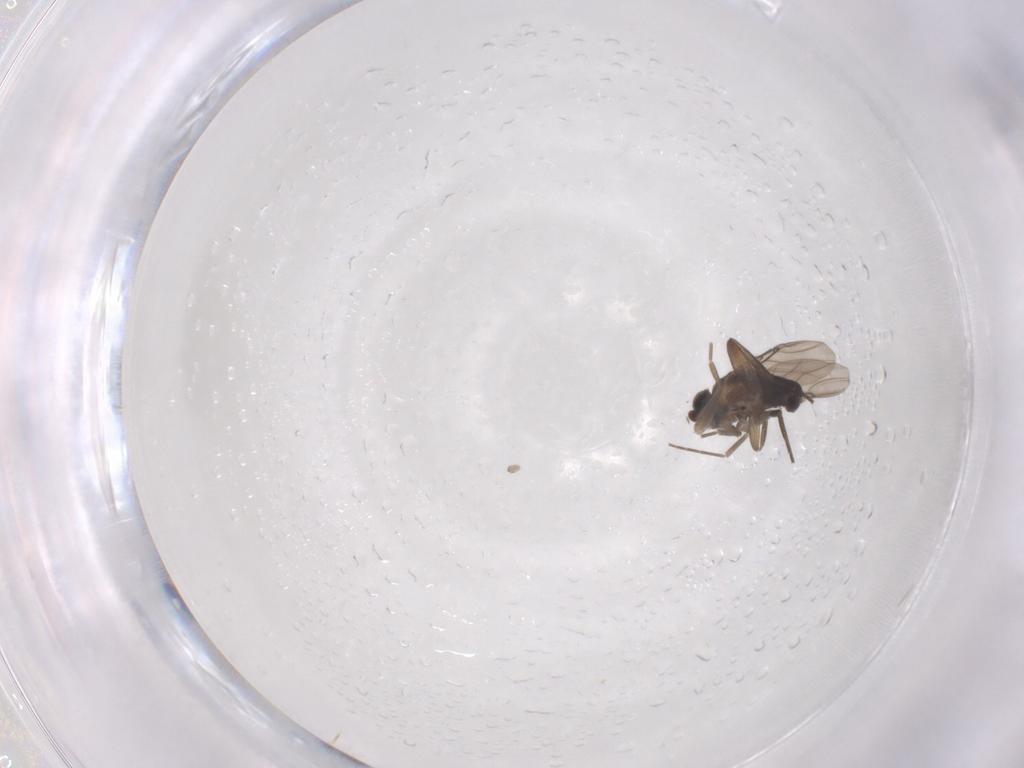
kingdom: Animalia
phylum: Arthropoda
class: Insecta
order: Diptera
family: Phoridae
